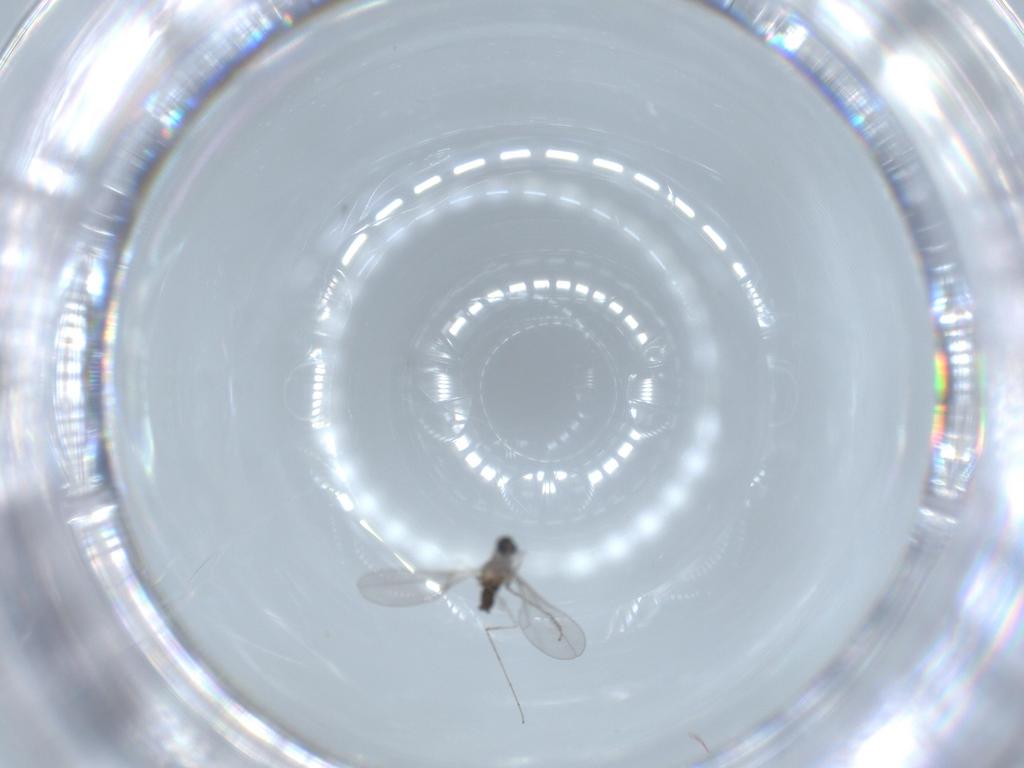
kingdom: Animalia
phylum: Arthropoda
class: Insecta
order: Diptera
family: Cecidomyiidae
